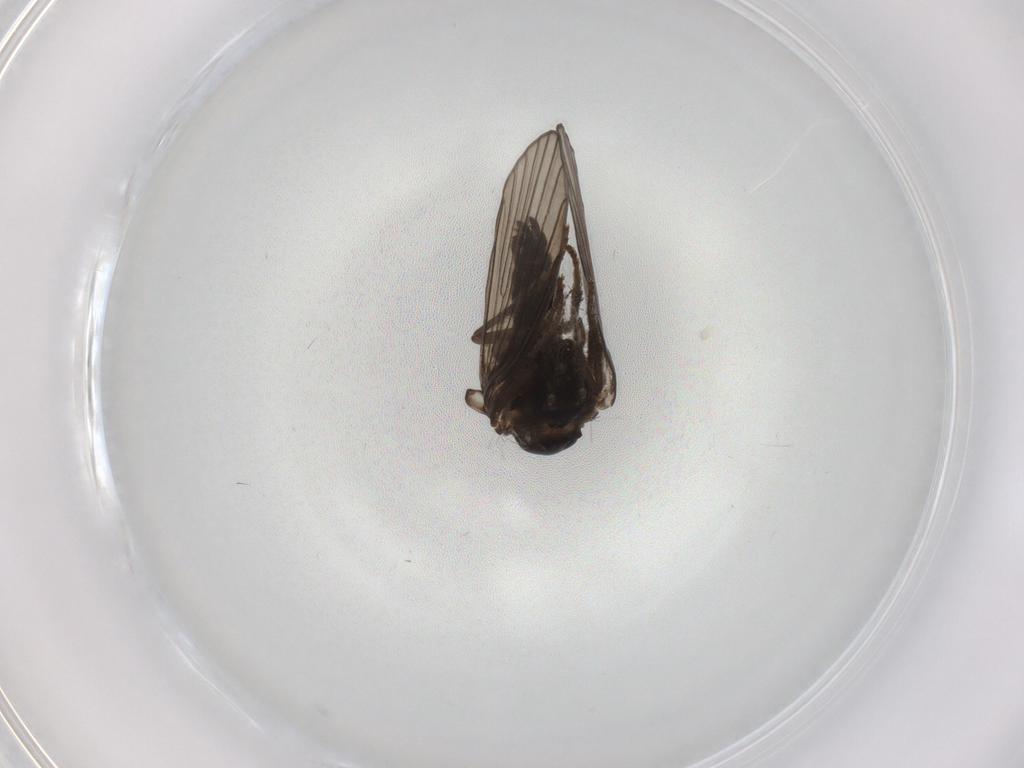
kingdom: Animalia
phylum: Arthropoda
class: Insecta
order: Diptera
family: Psychodidae
